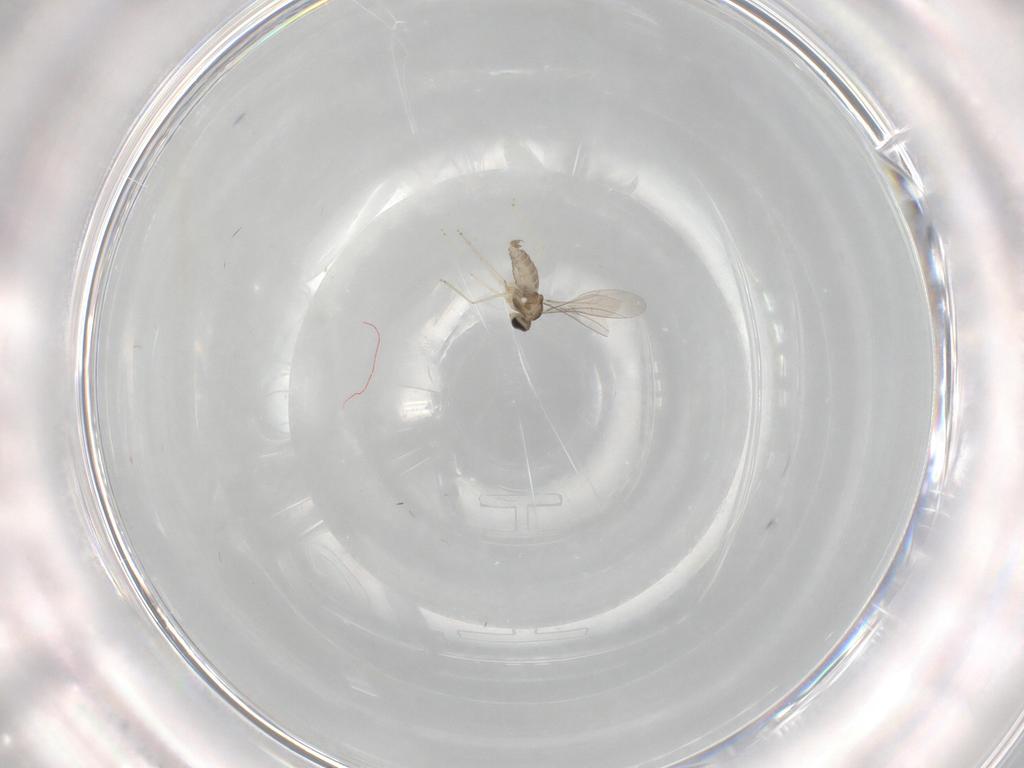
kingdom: Animalia
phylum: Arthropoda
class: Insecta
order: Diptera
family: Cecidomyiidae
